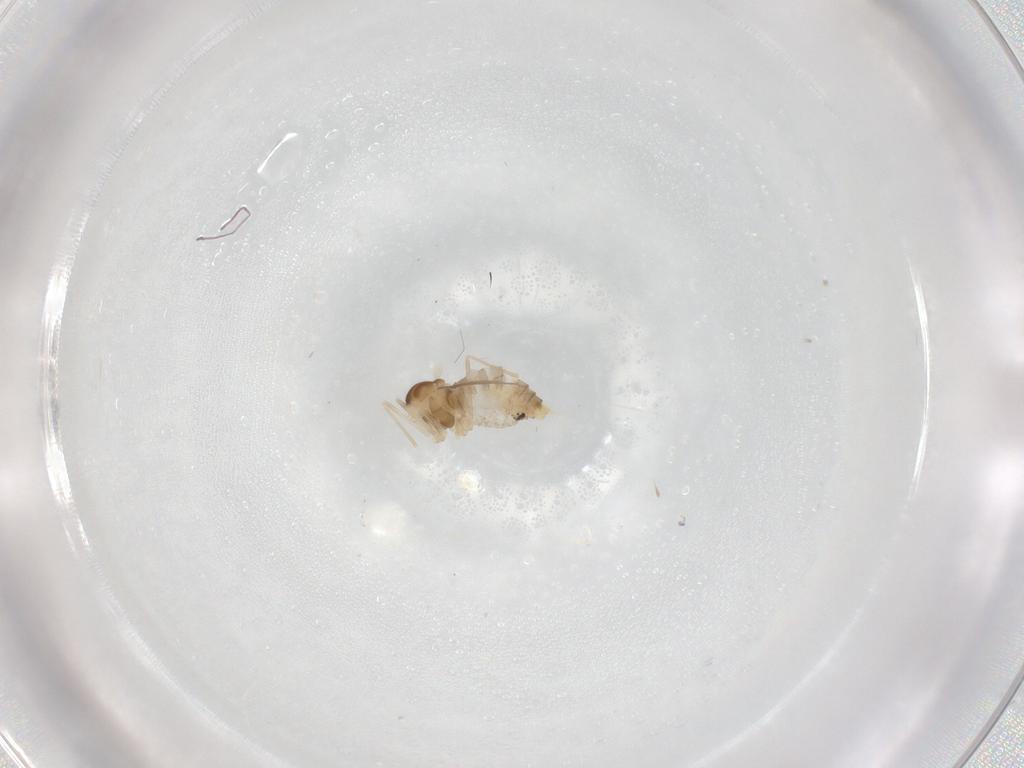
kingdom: Animalia
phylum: Arthropoda
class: Insecta
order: Diptera
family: Cecidomyiidae
